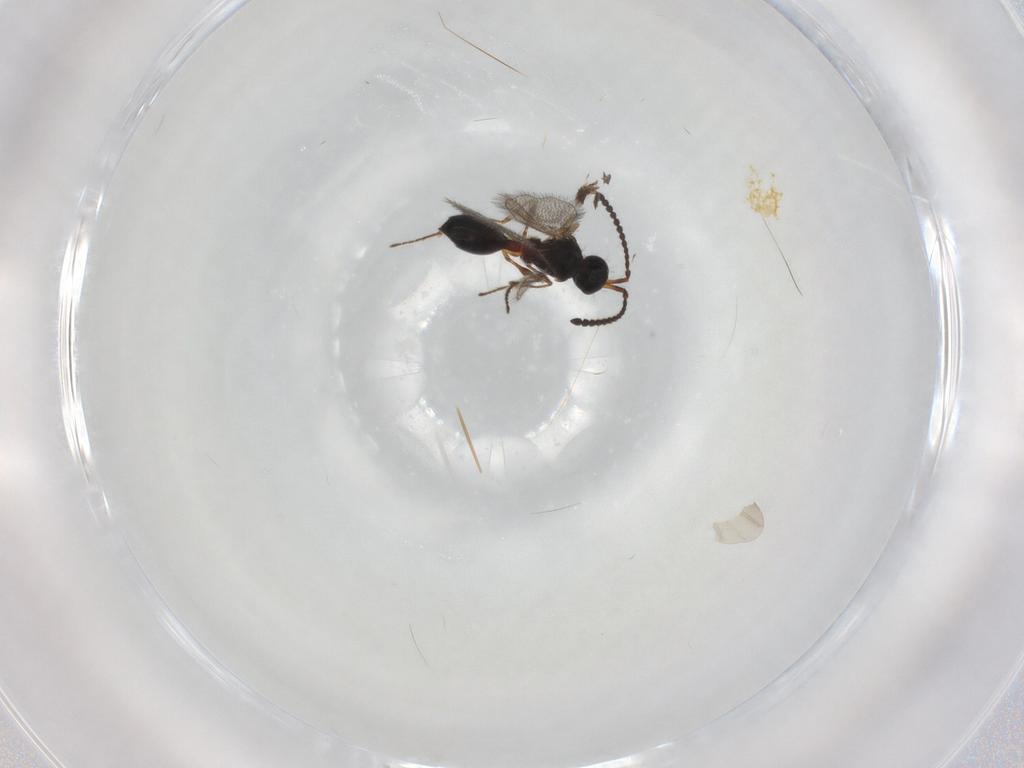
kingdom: Animalia
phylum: Arthropoda
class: Insecta
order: Hymenoptera
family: Diapriidae
